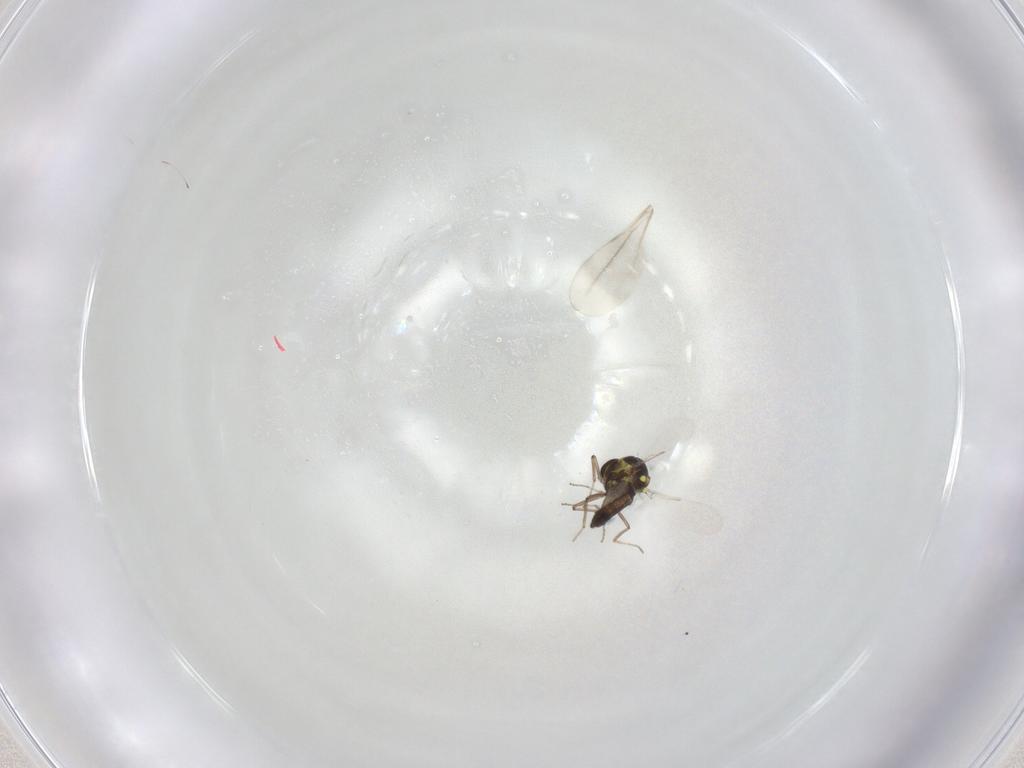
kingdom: Animalia
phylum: Arthropoda
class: Insecta
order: Diptera
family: Ceratopogonidae
